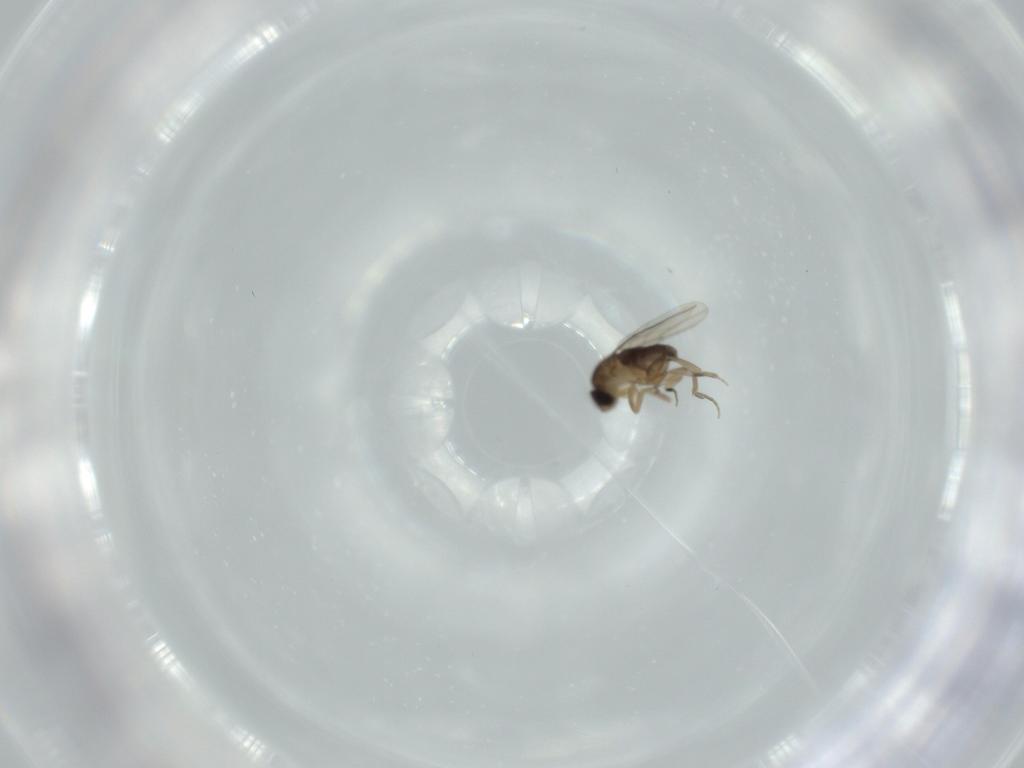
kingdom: Animalia
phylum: Arthropoda
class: Insecta
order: Diptera
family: Phoridae
